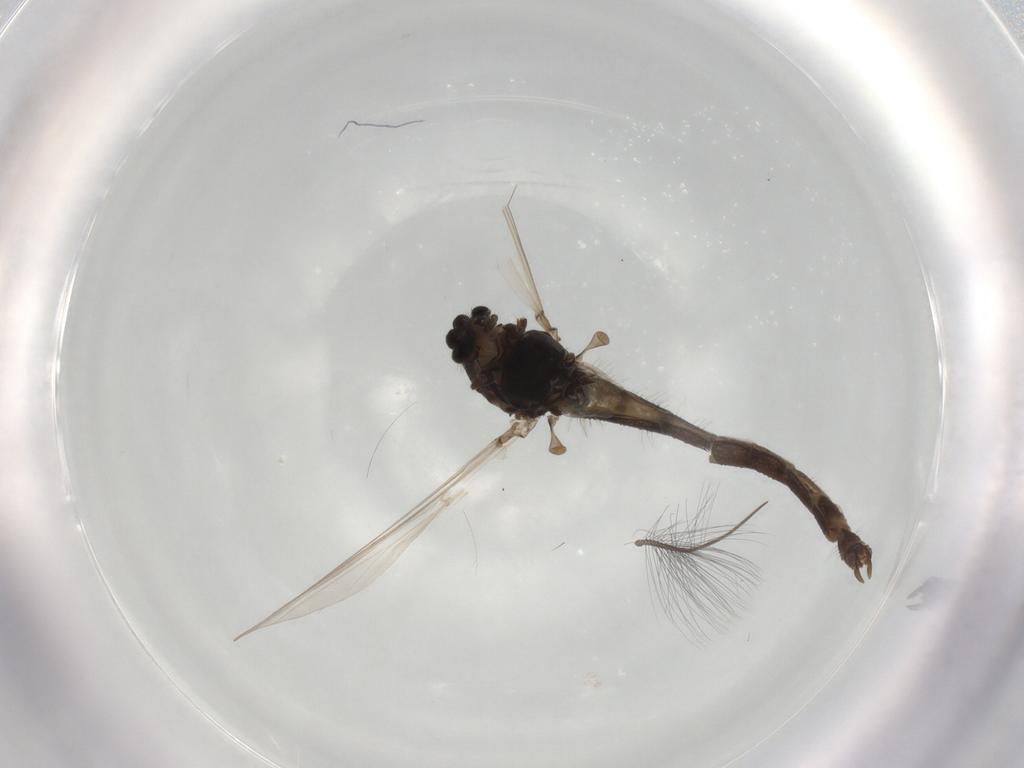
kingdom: Animalia
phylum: Arthropoda
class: Insecta
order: Diptera
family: Chironomidae
